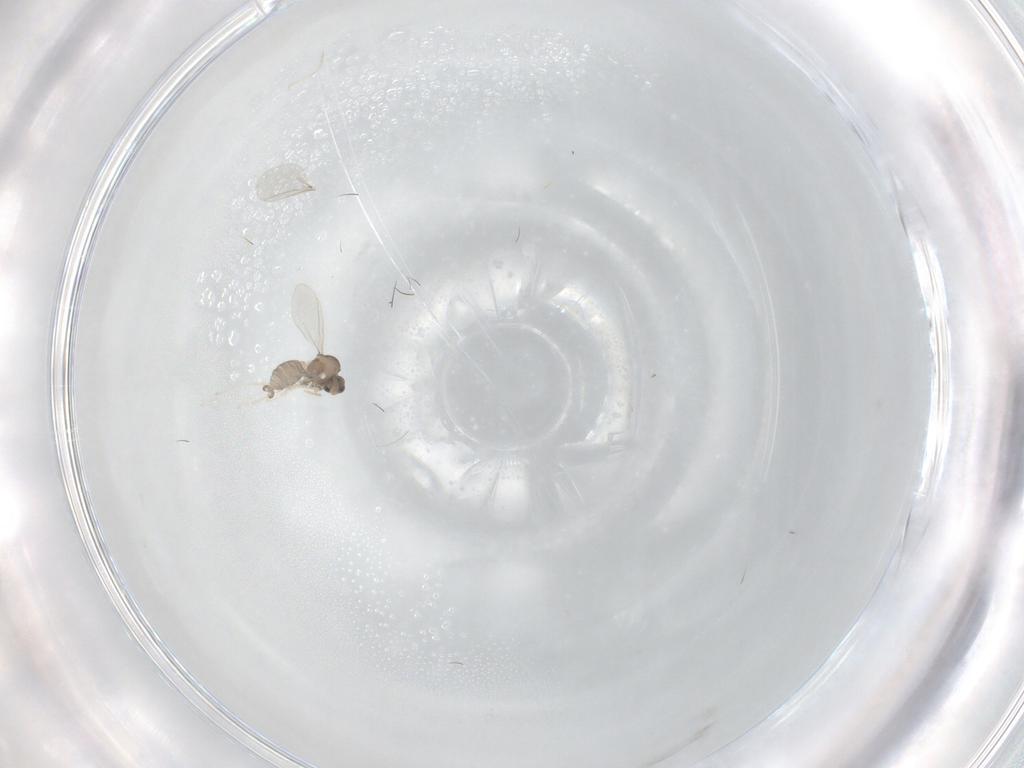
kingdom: Animalia
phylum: Arthropoda
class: Insecta
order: Diptera
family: Cecidomyiidae
